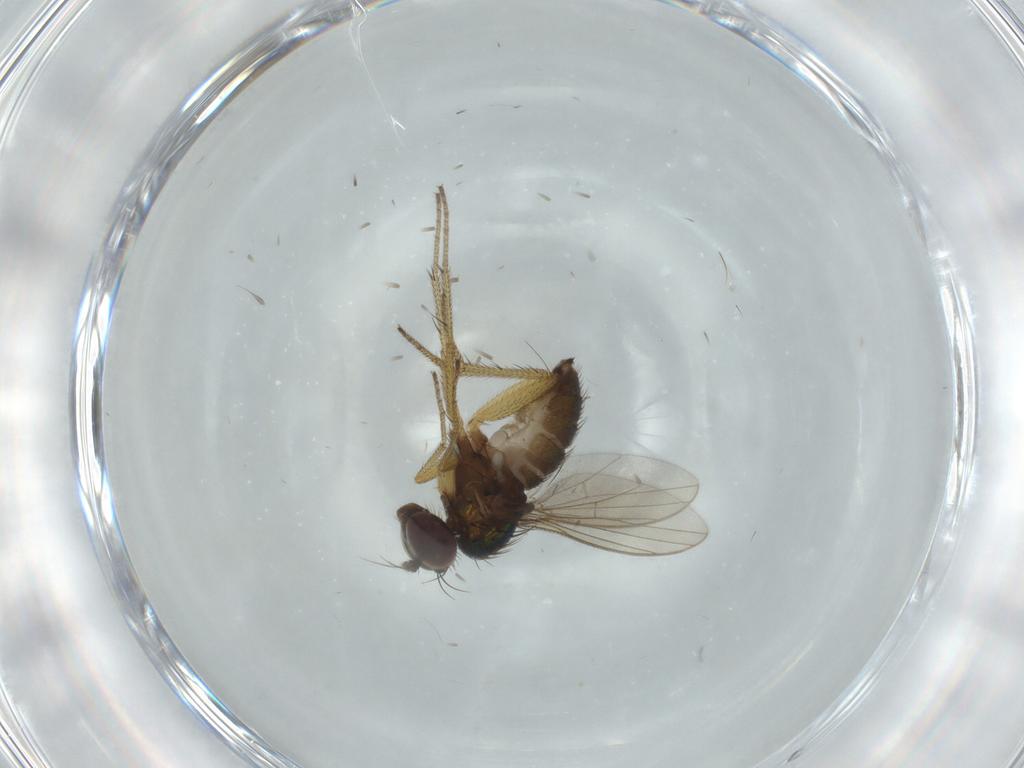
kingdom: Animalia
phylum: Arthropoda
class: Insecta
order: Diptera
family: Dolichopodidae
